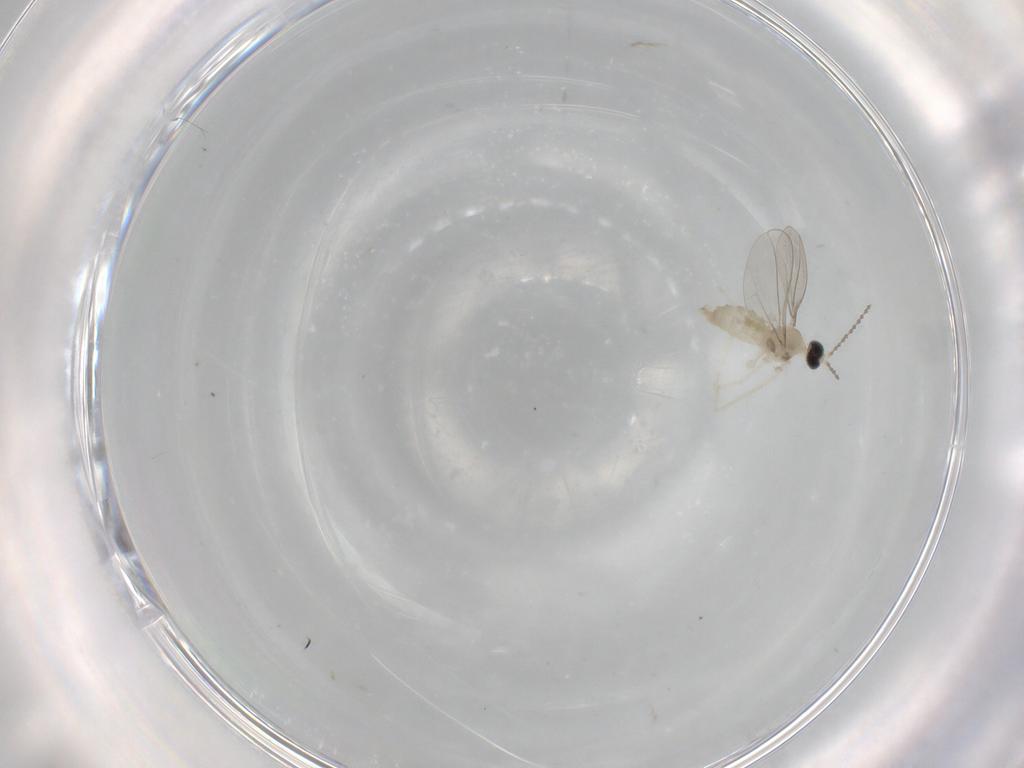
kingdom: Animalia
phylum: Arthropoda
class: Insecta
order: Diptera
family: Cecidomyiidae
